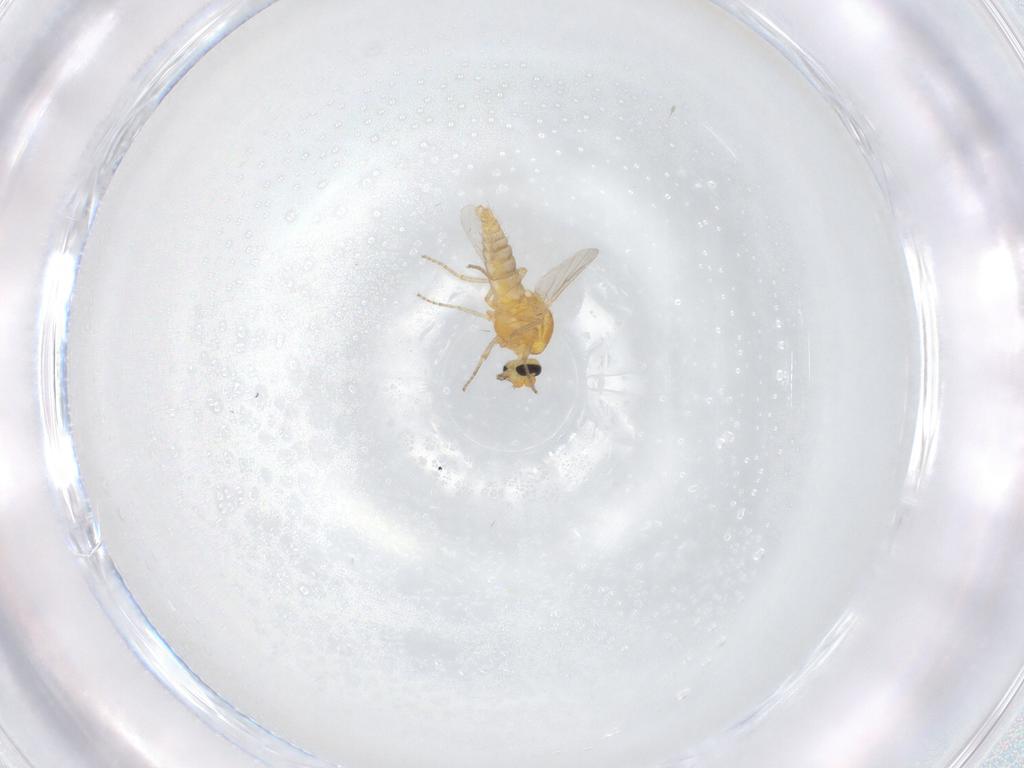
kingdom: Animalia
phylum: Arthropoda
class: Insecta
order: Diptera
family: Ceratopogonidae
